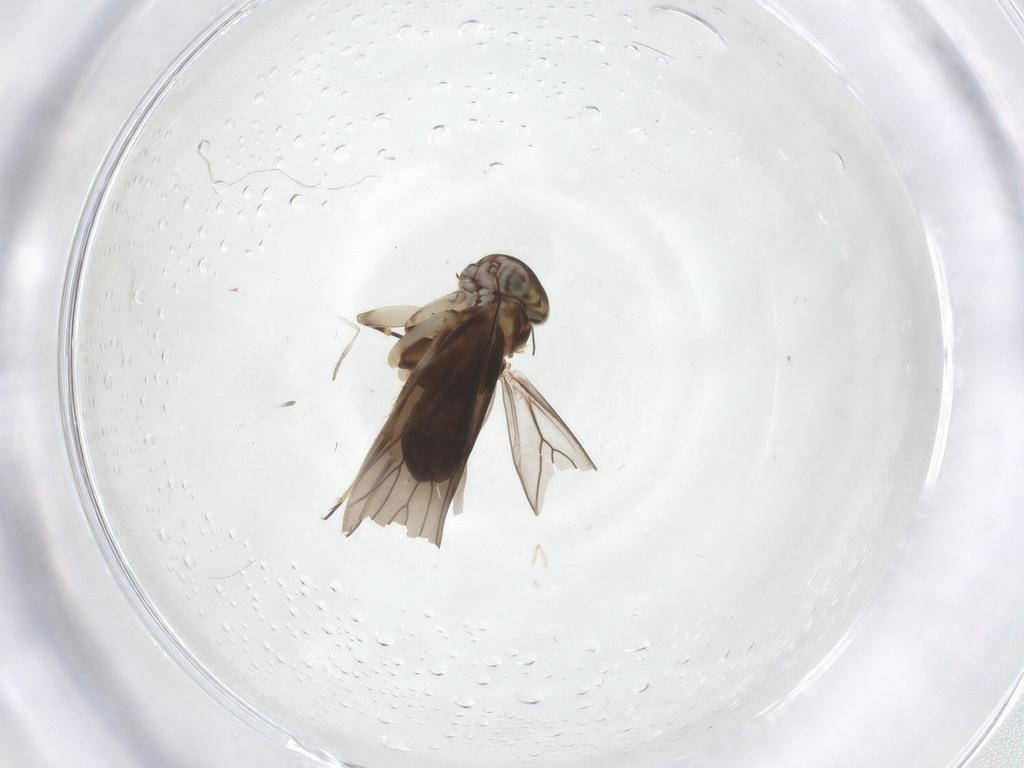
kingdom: Animalia
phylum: Arthropoda
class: Insecta
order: Psocodea
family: Amphientomidae
